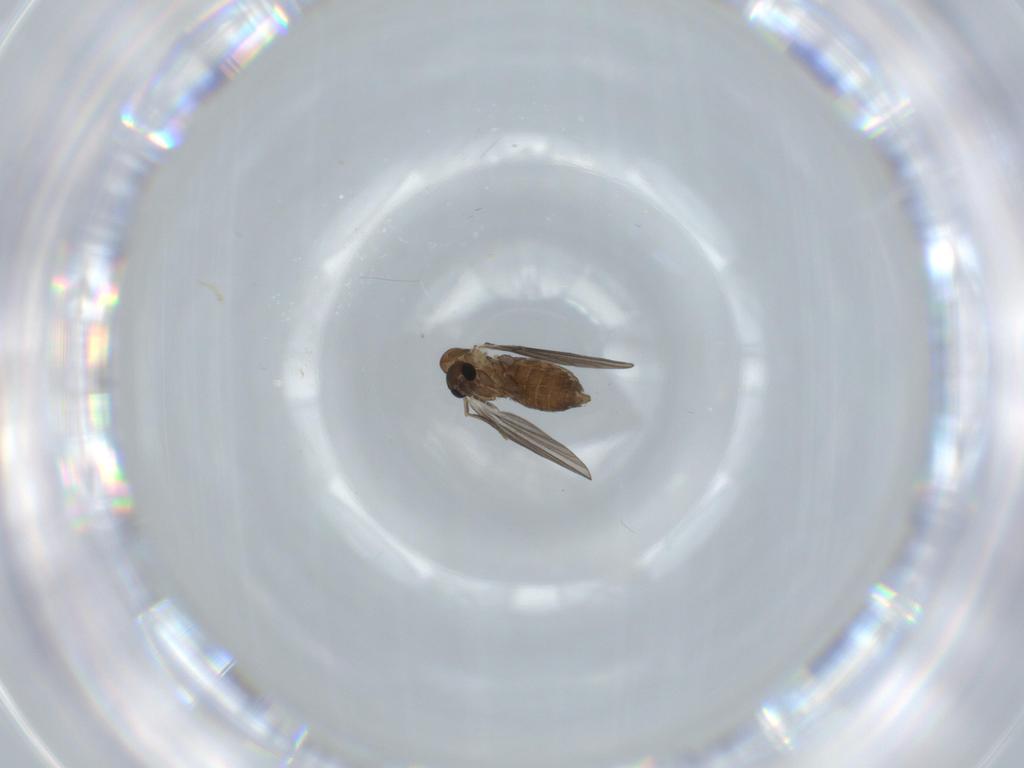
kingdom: Animalia
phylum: Arthropoda
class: Insecta
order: Diptera
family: Psychodidae
